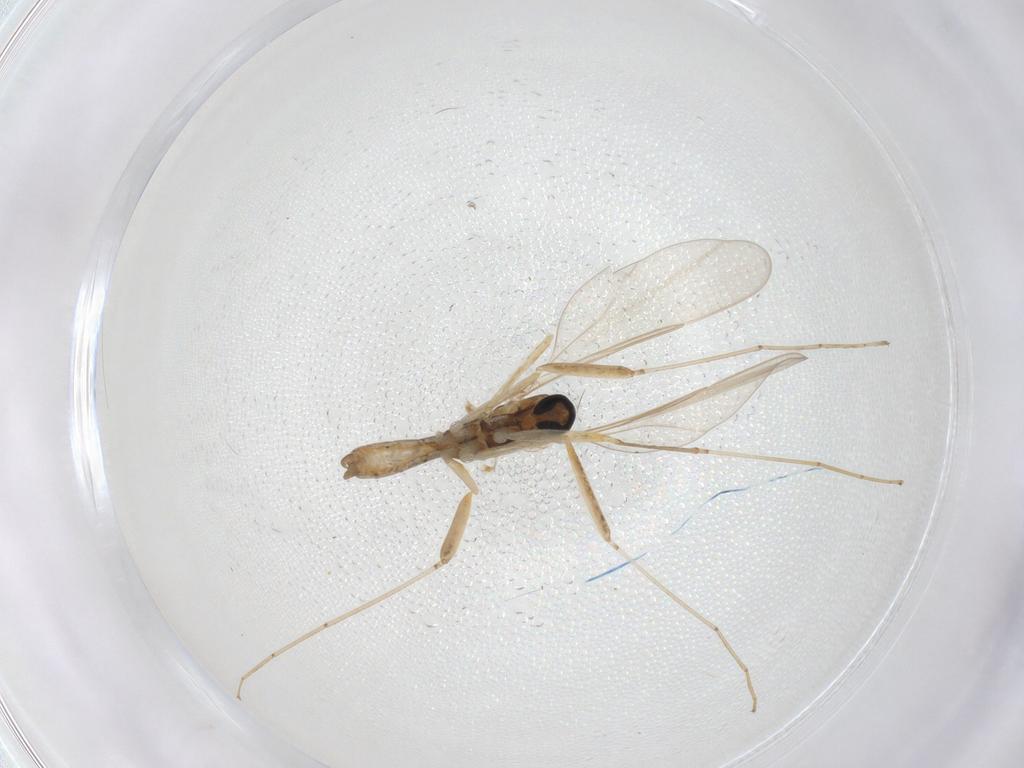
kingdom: Animalia
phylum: Arthropoda
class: Insecta
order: Diptera
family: Cecidomyiidae
